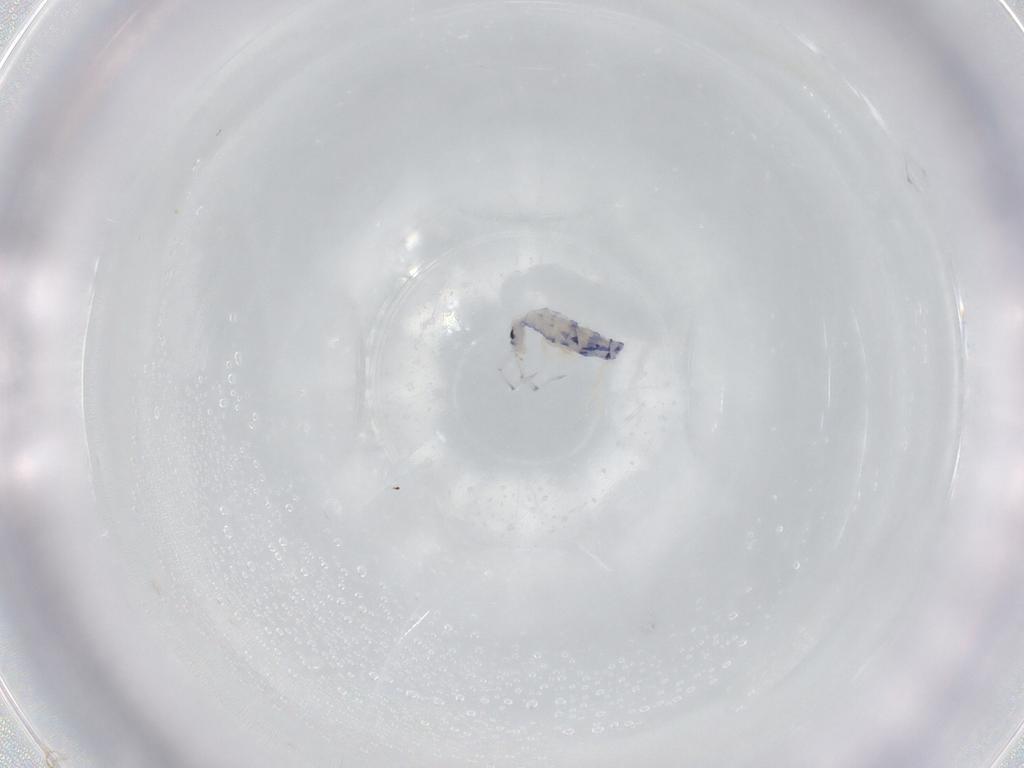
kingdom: Animalia
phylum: Arthropoda
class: Collembola
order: Entomobryomorpha
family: Entomobryidae
